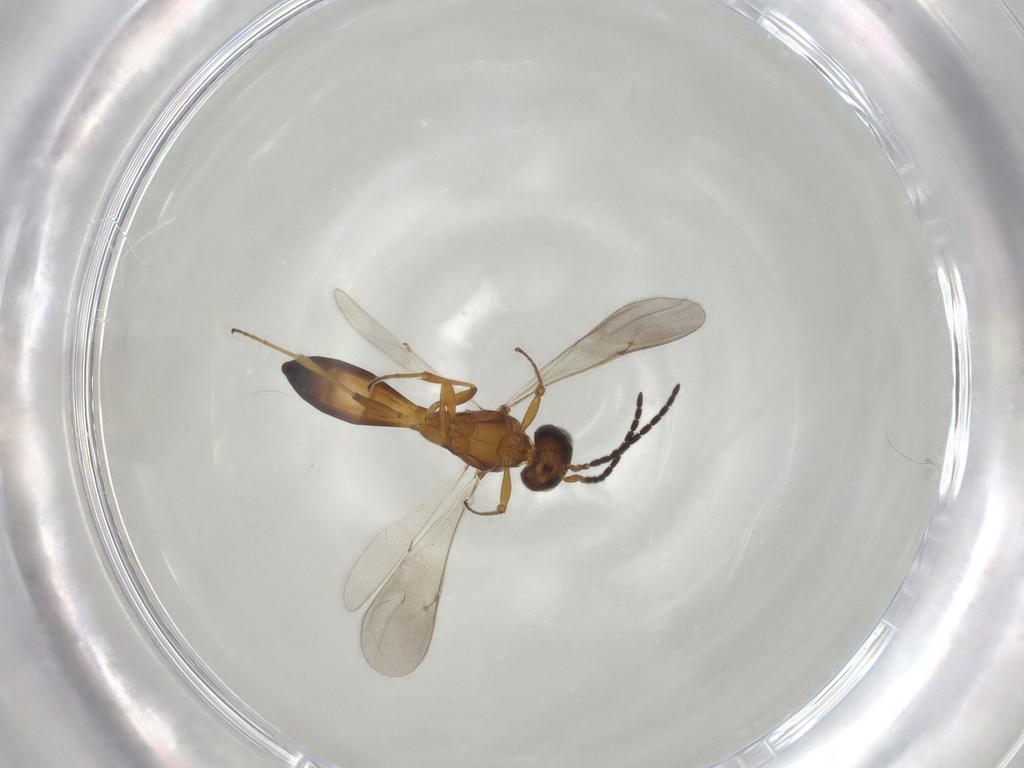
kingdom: Animalia
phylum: Arthropoda
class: Insecta
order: Hymenoptera
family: Scelionidae
